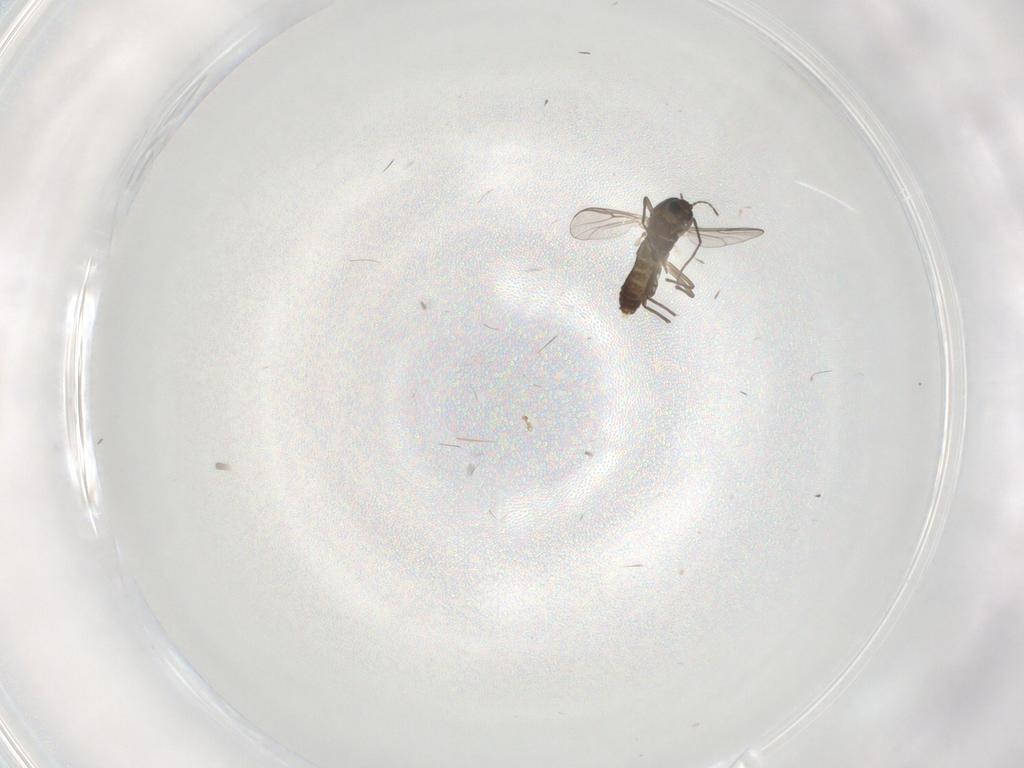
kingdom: Animalia
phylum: Arthropoda
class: Insecta
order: Diptera
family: Chironomidae
